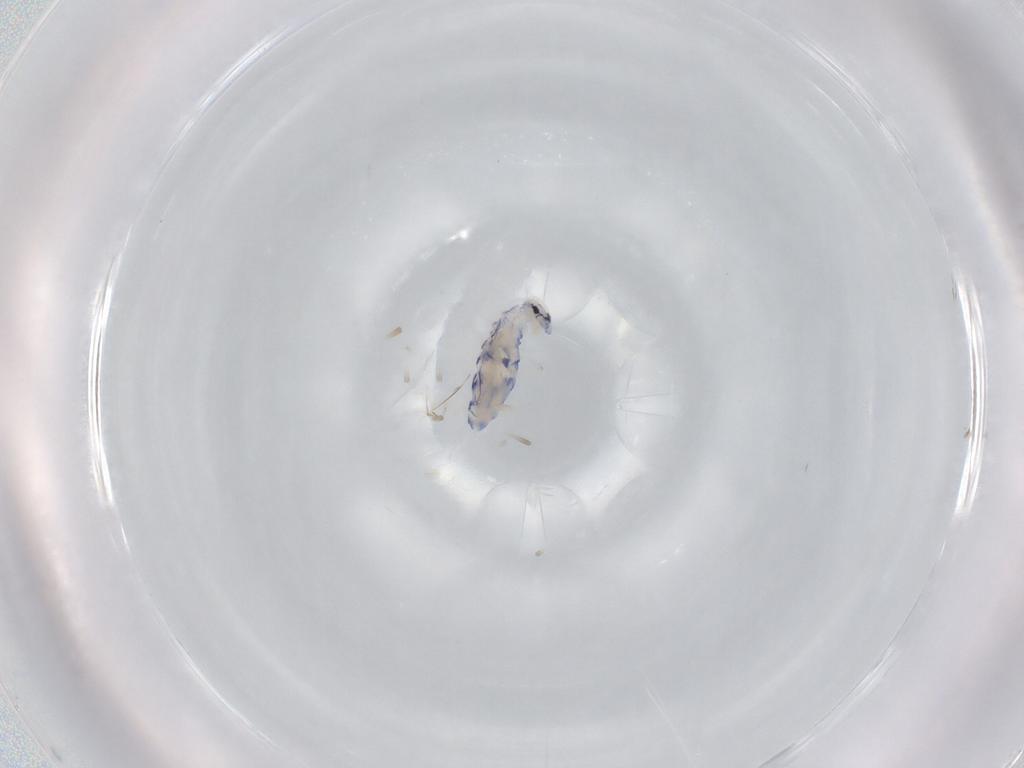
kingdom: Animalia
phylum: Arthropoda
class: Collembola
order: Entomobryomorpha
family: Entomobryidae
